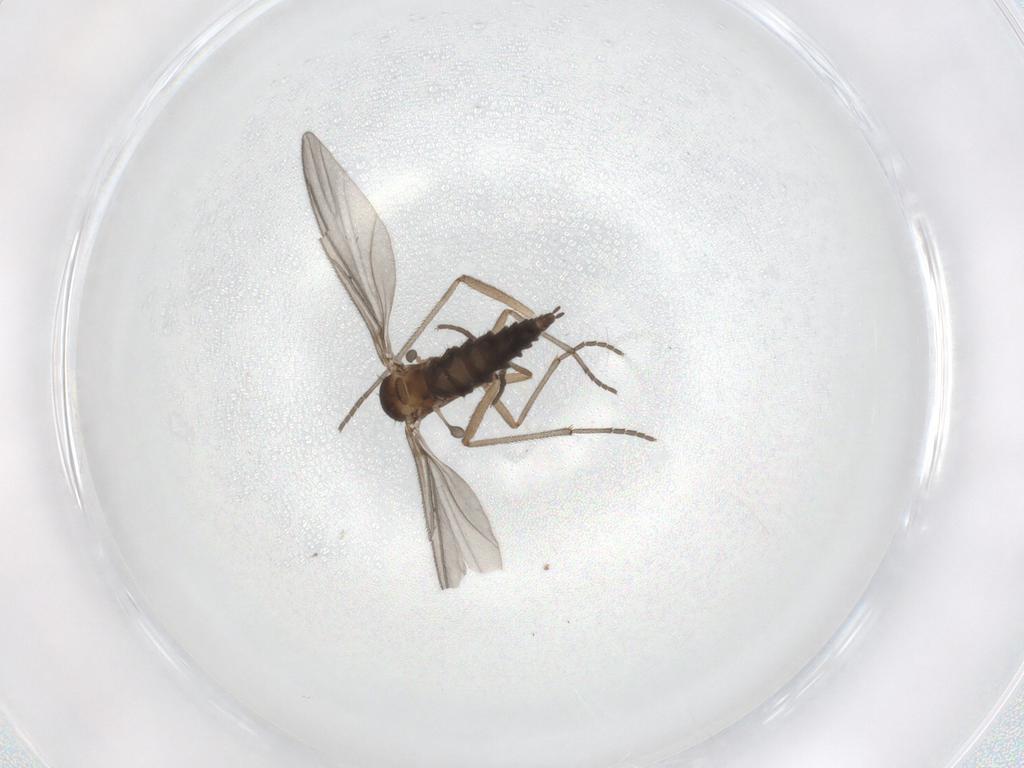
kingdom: Animalia
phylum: Arthropoda
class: Insecta
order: Diptera
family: Sciaridae
